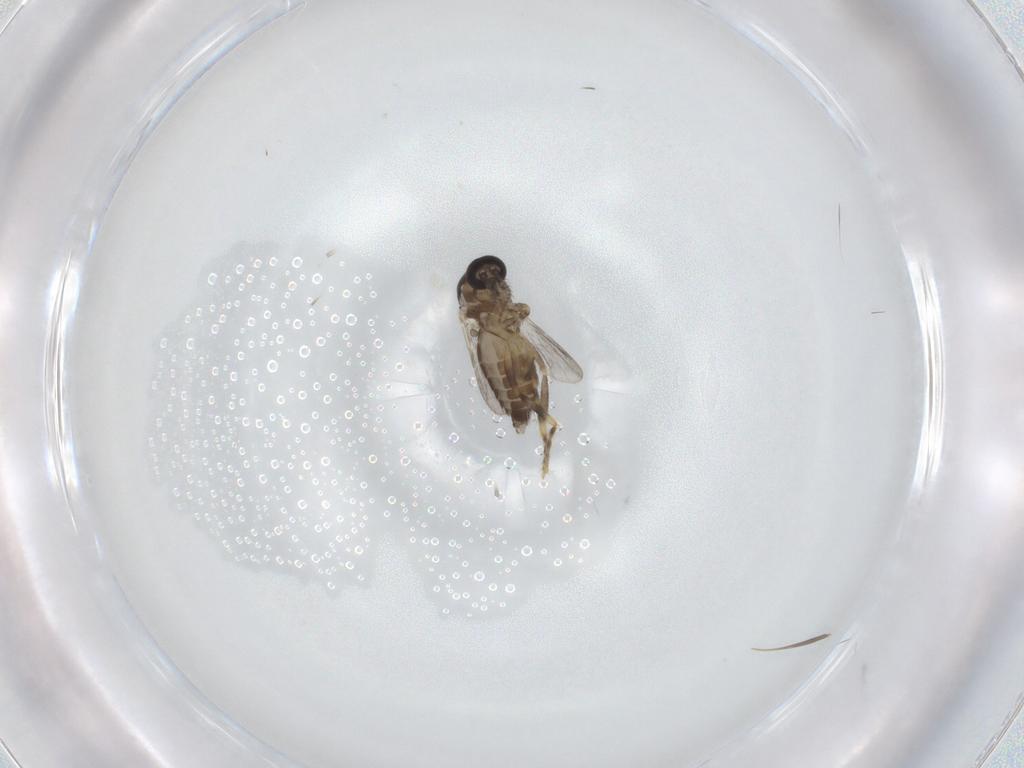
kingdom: Animalia
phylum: Arthropoda
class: Insecta
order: Diptera
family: Ceratopogonidae
